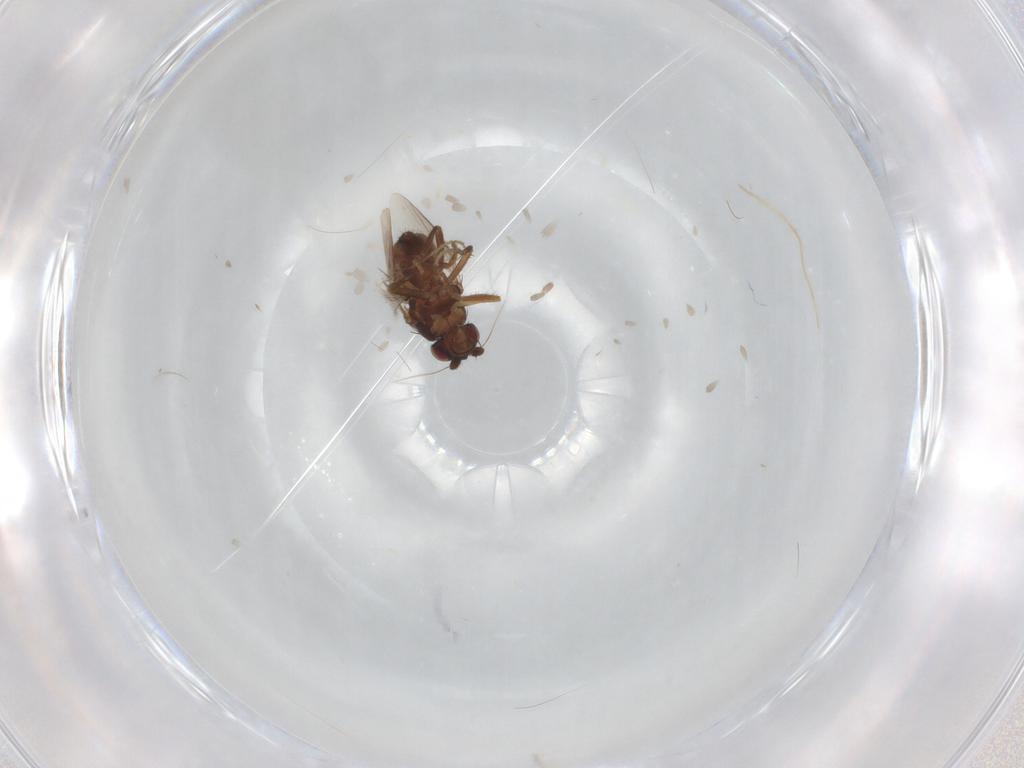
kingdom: Animalia
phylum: Arthropoda
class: Insecta
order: Diptera
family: Sphaeroceridae
